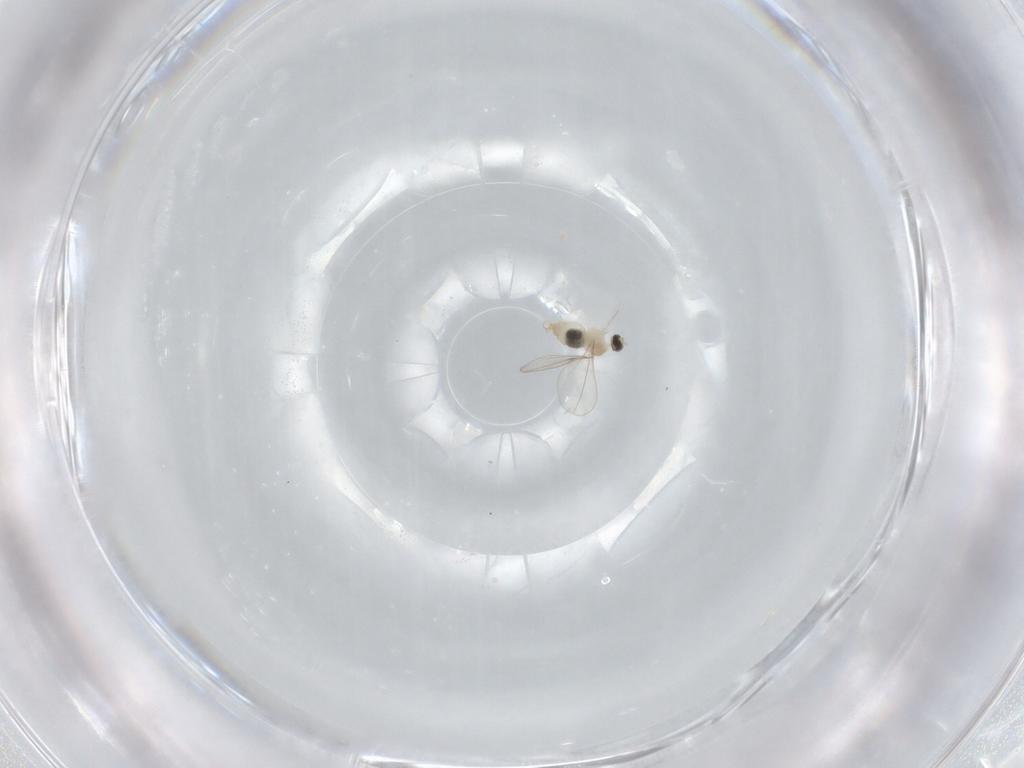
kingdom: Animalia
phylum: Arthropoda
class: Insecta
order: Diptera
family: Cecidomyiidae
